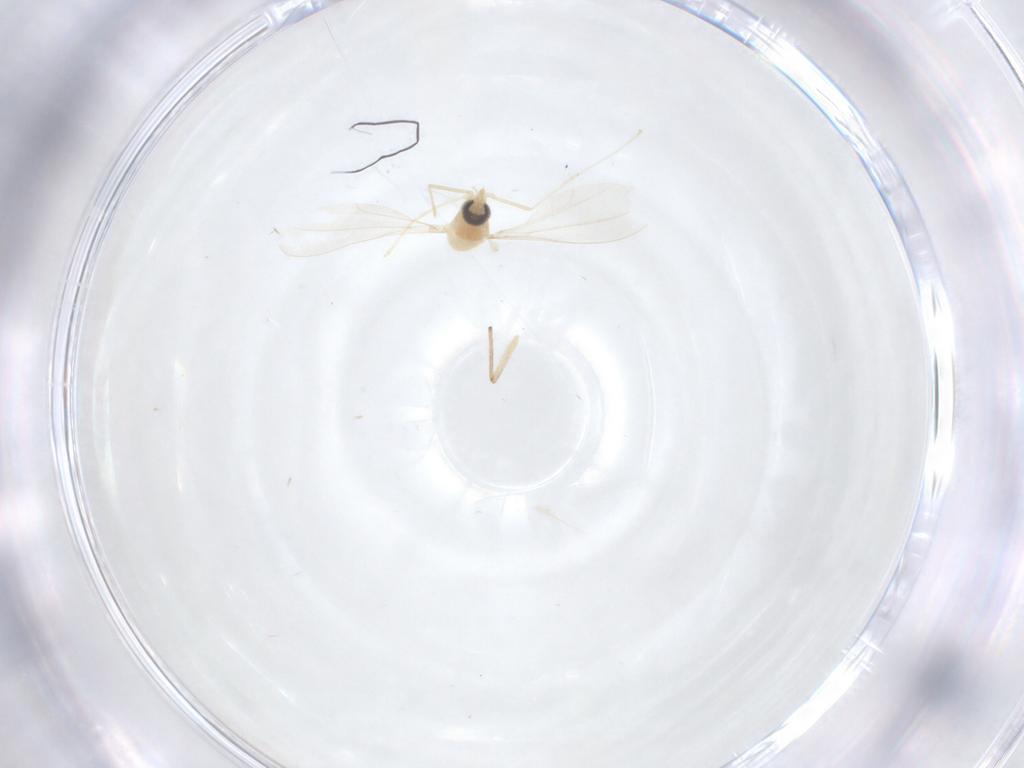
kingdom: Animalia
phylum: Arthropoda
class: Insecta
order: Diptera
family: Cecidomyiidae
